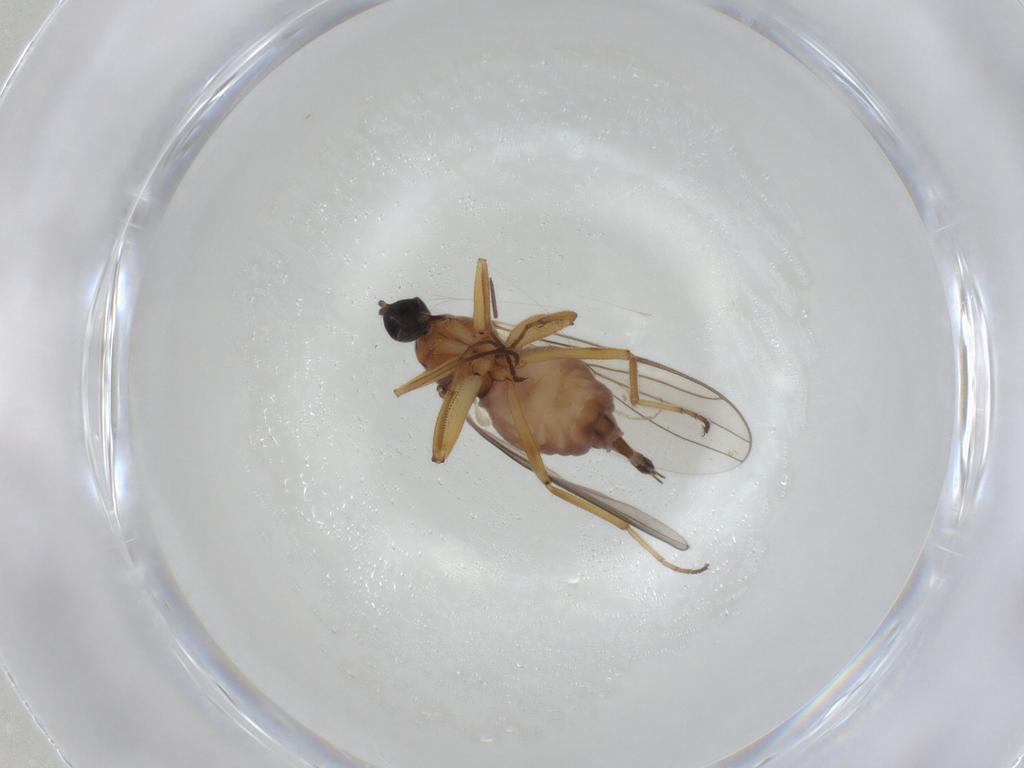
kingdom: Animalia
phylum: Arthropoda
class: Insecta
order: Diptera
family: Hybotidae
